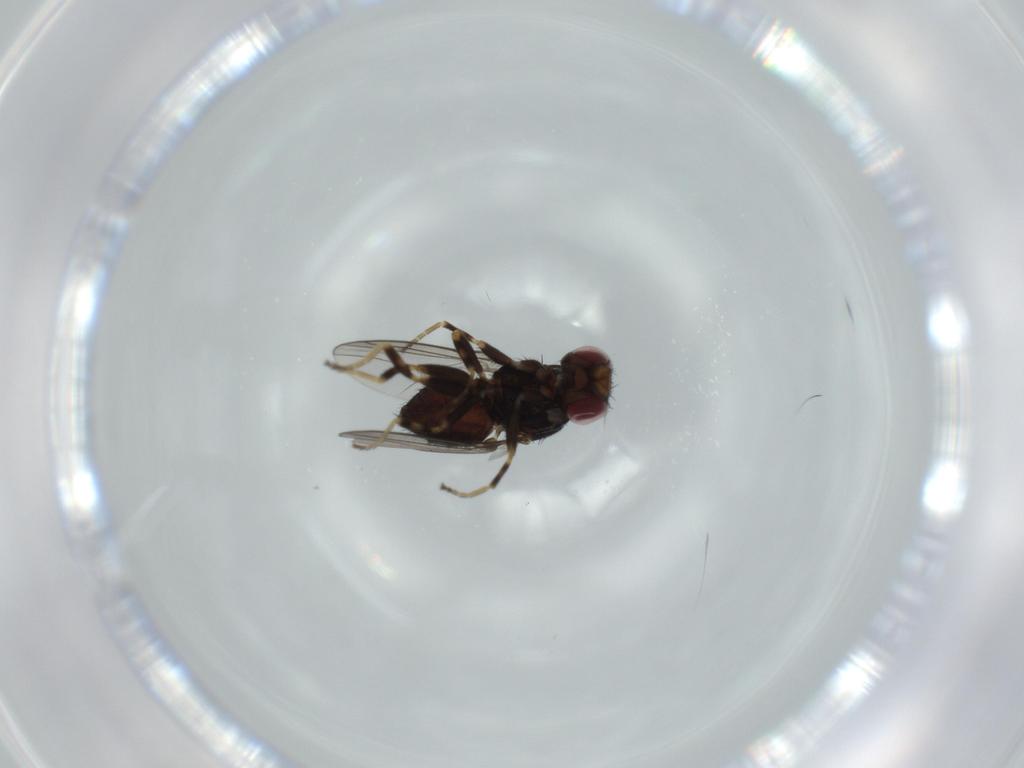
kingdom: Animalia
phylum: Arthropoda
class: Insecta
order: Diptera
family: Chloropidae
